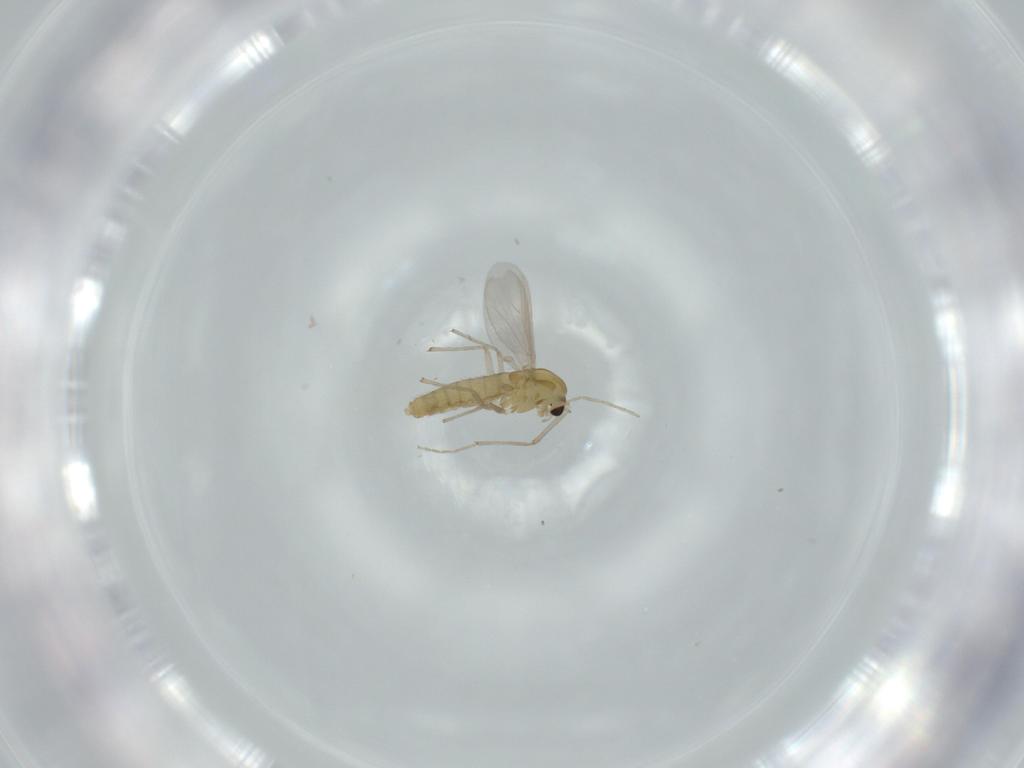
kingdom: Animalia
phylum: Arthropoda
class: Insecta
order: Diptera
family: Chironomidae
